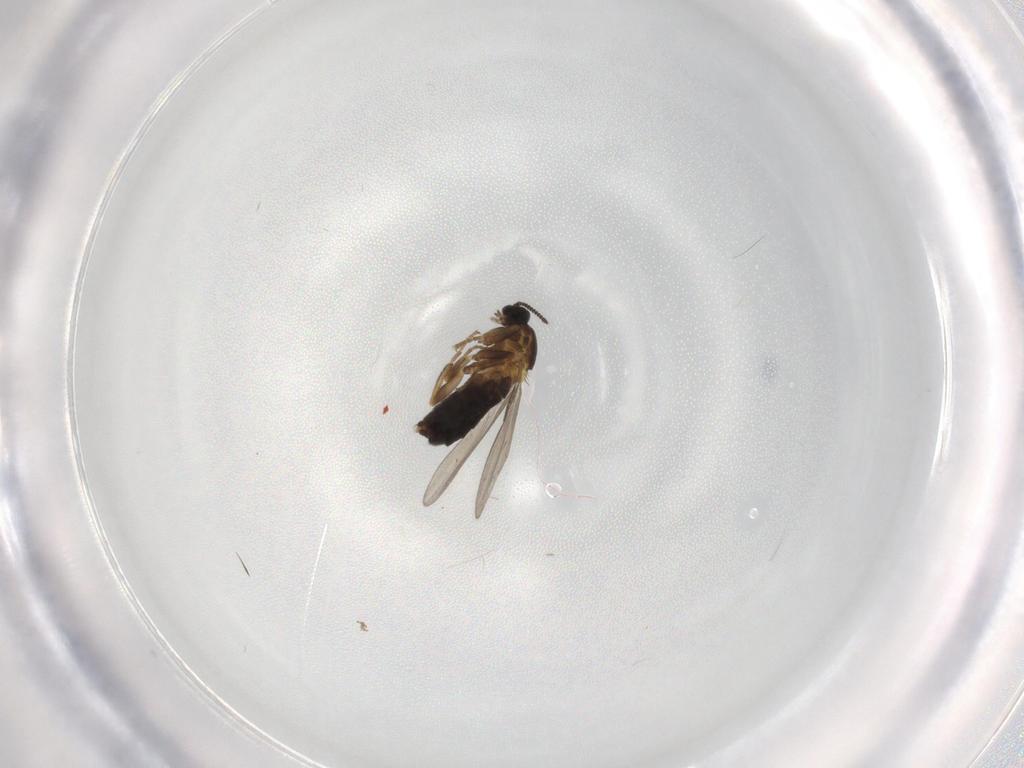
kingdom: Animalia
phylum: Arthropoda
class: Insecta
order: Diptera
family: Scatopsidae
